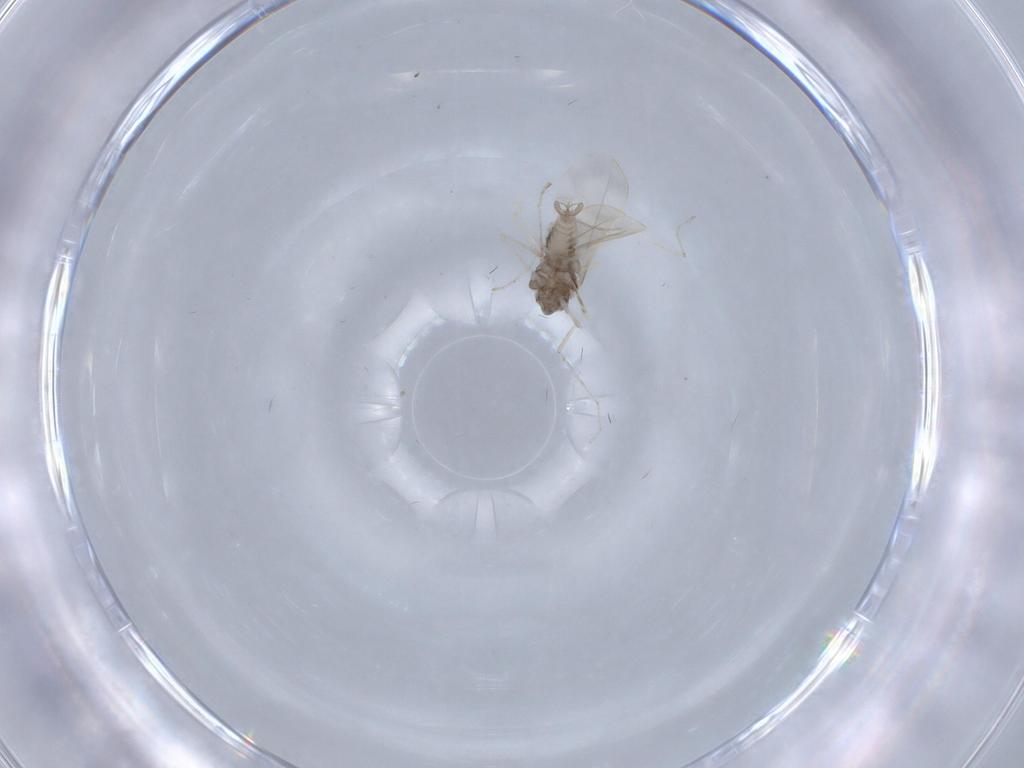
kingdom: Animalia
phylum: Arthropoda
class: Insecta
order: Diptera
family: Cecidomyiidae
